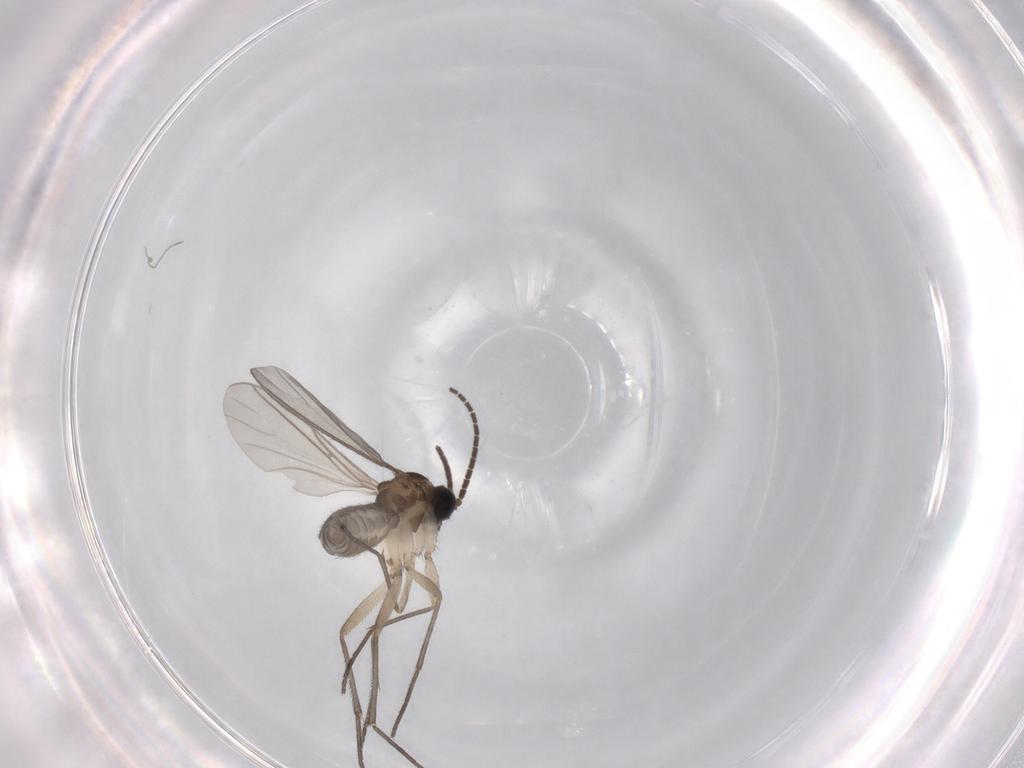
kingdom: Animalia
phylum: Arthropoda
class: Insecta
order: Diptera
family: Sciaridae
